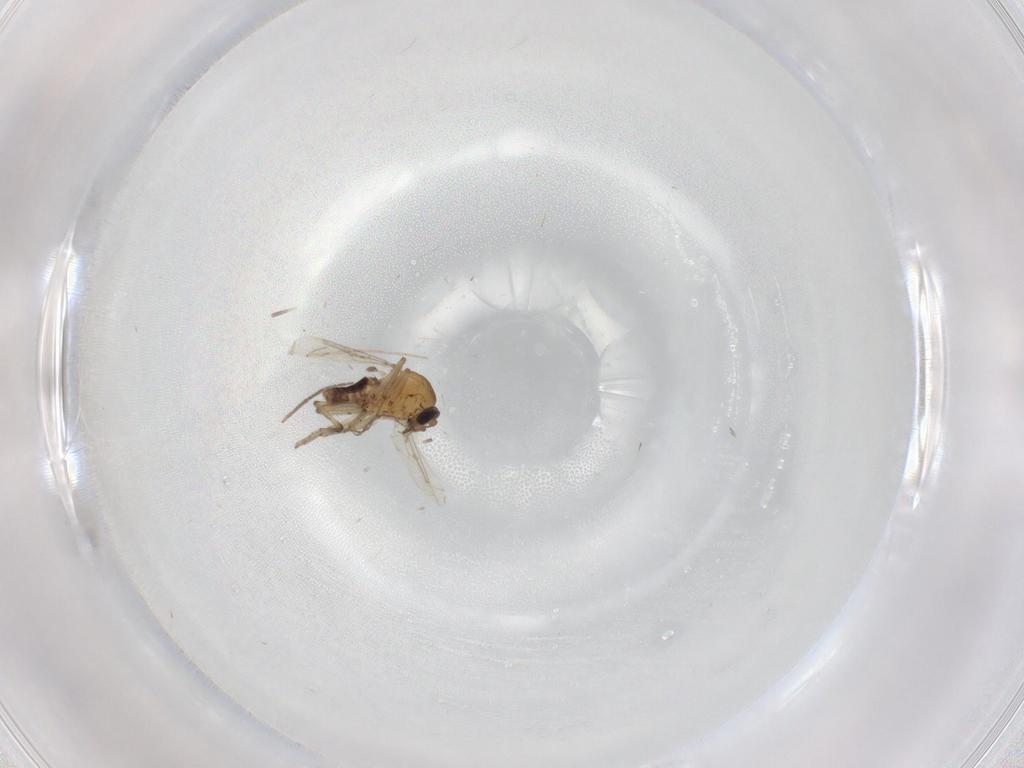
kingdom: Animalia
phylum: Arthropoda
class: Insecta
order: Diptera
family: Ceratopogonidae
